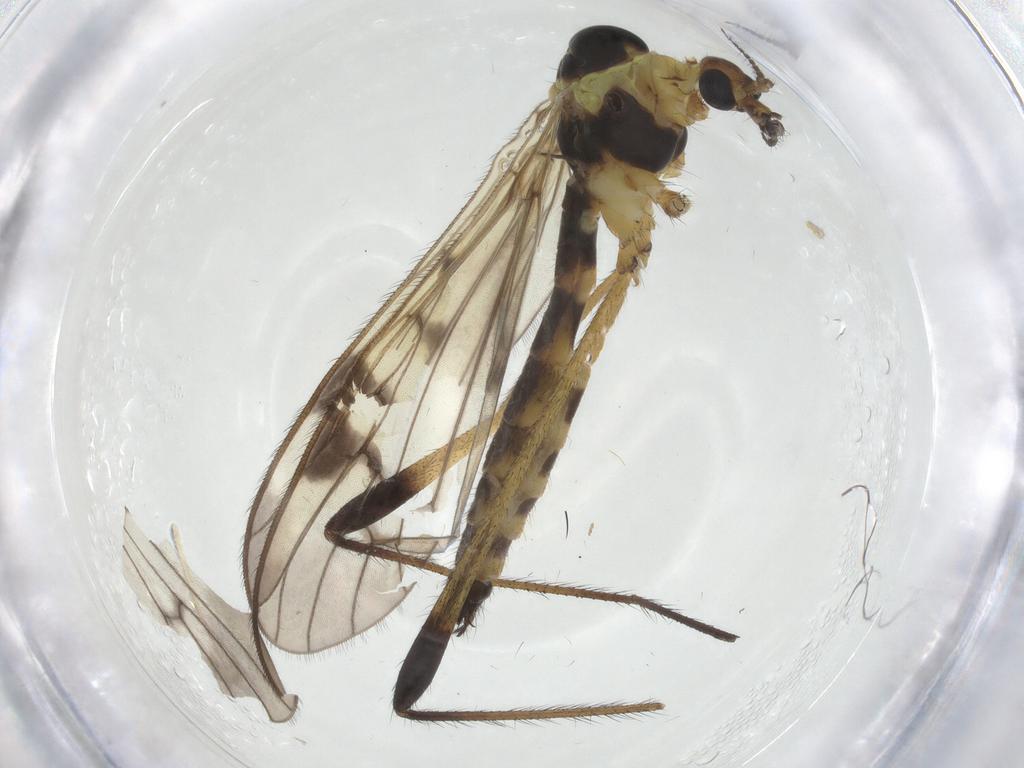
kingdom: Animalia
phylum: Arthropoda
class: Insecta
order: Diptera
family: Limoniidae
